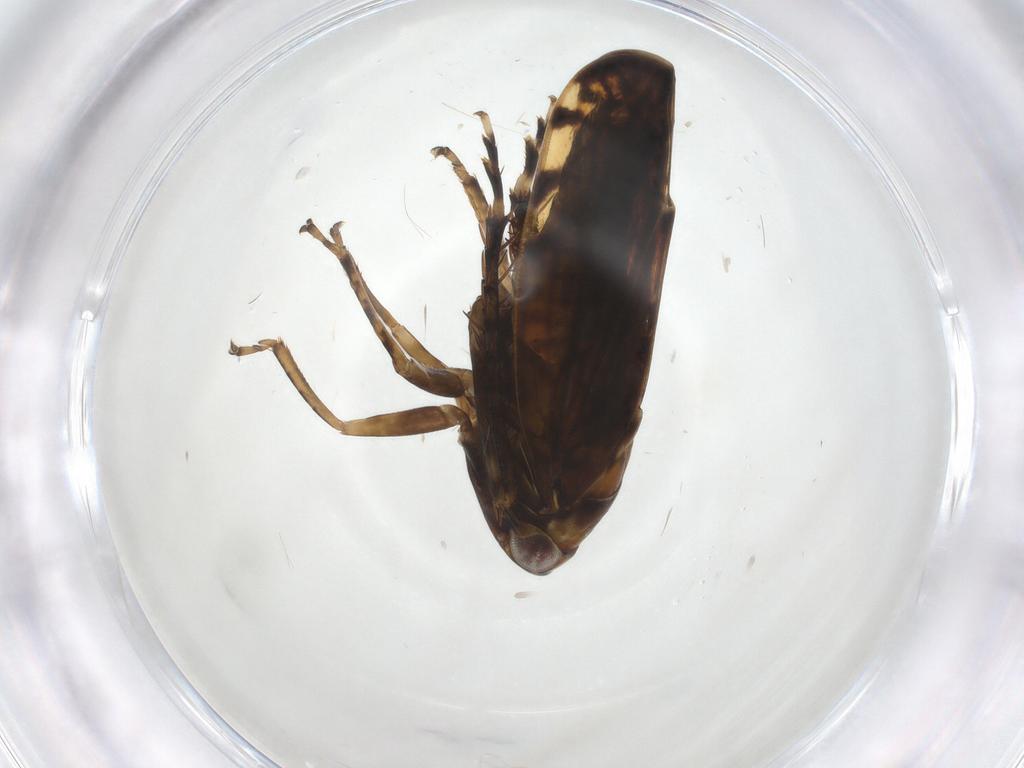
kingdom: Animalia
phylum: Arthropoda
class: Insecta
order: Hemiptera
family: Cicadellidae
